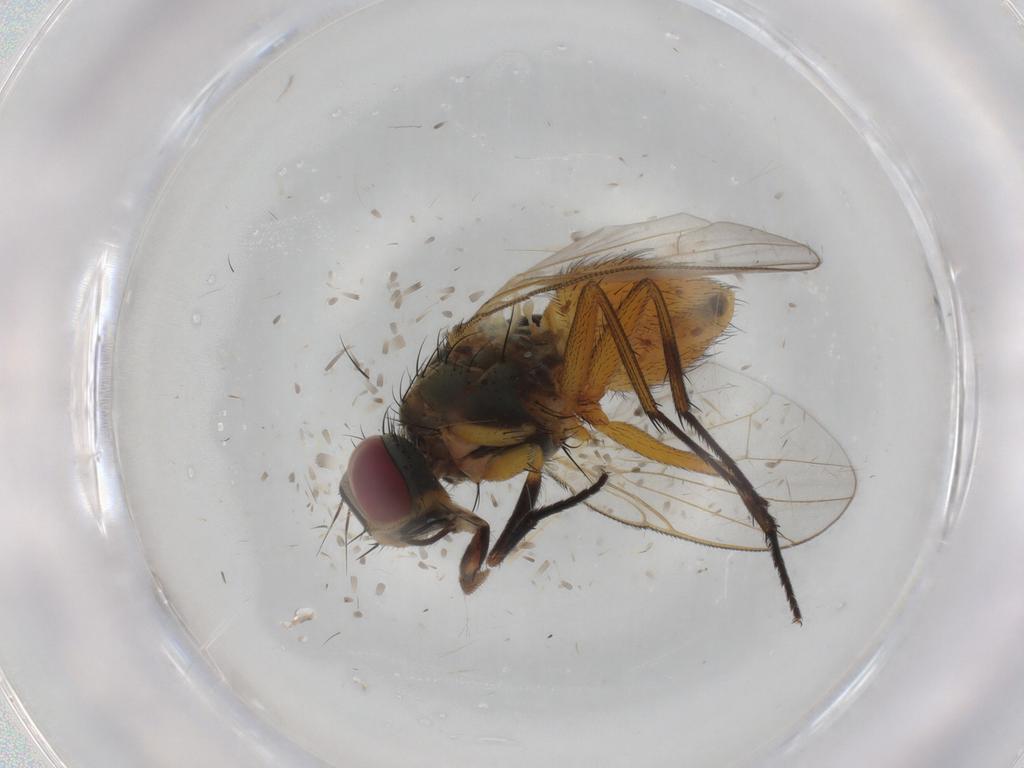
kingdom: Animalia
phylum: Arthropoda
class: Insecta
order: Diptera
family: Muscidae
